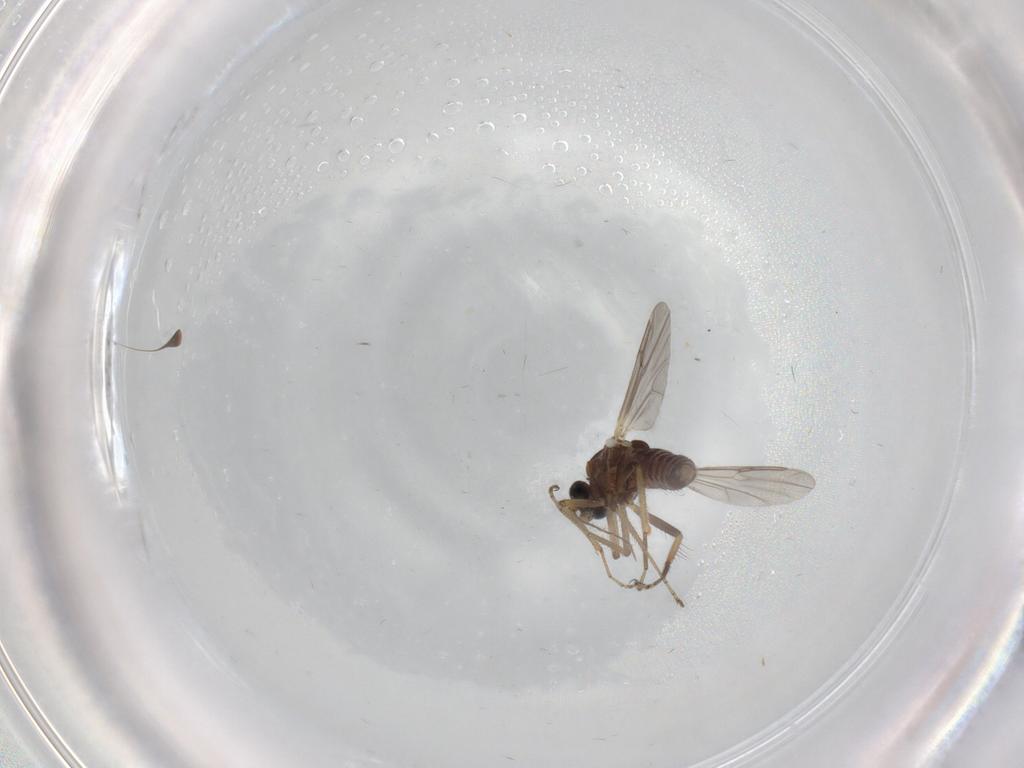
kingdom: Animalia
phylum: Arthropoda
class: Insecta
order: Diptera
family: Ceratopogonidae
